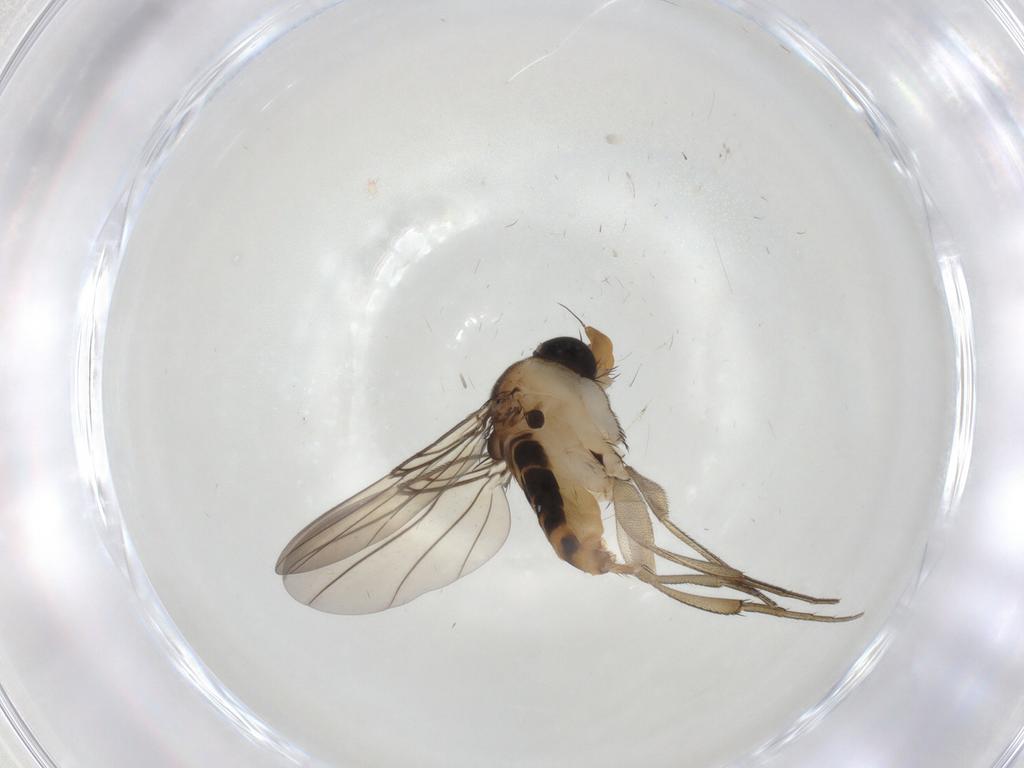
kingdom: Animalia
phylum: Arthropoda
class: Insecta
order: Diptera
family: Phoridae
